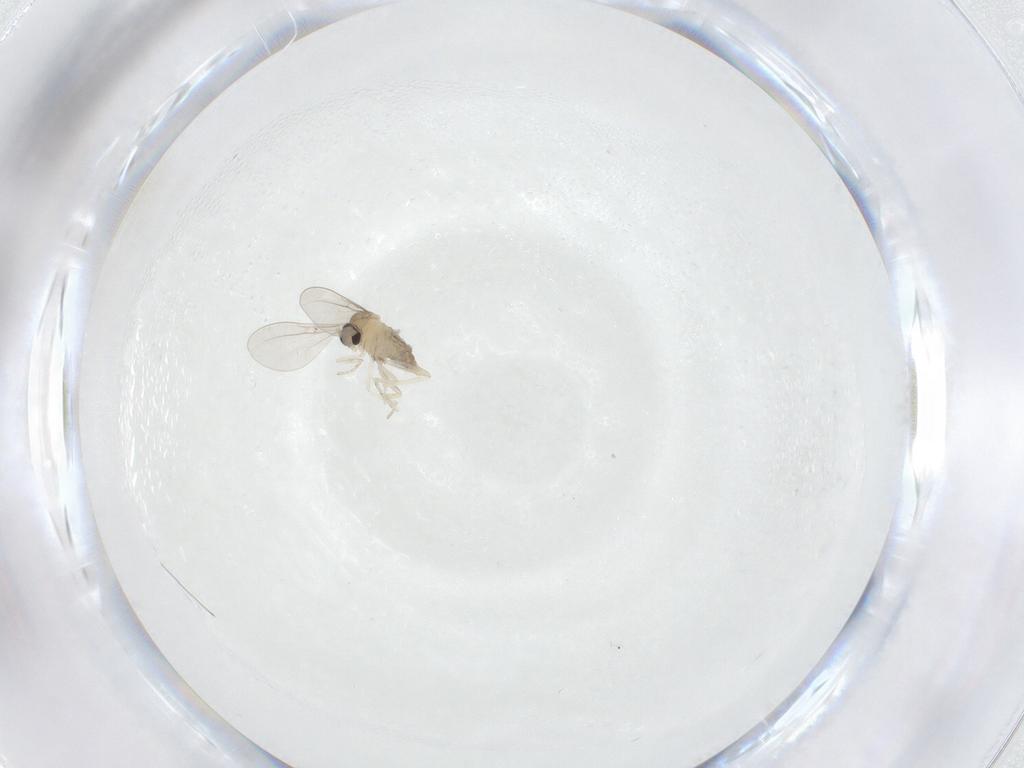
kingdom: Animalia
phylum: Arthropoda
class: Insecta
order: Diptera
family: Cecidomyiidae
